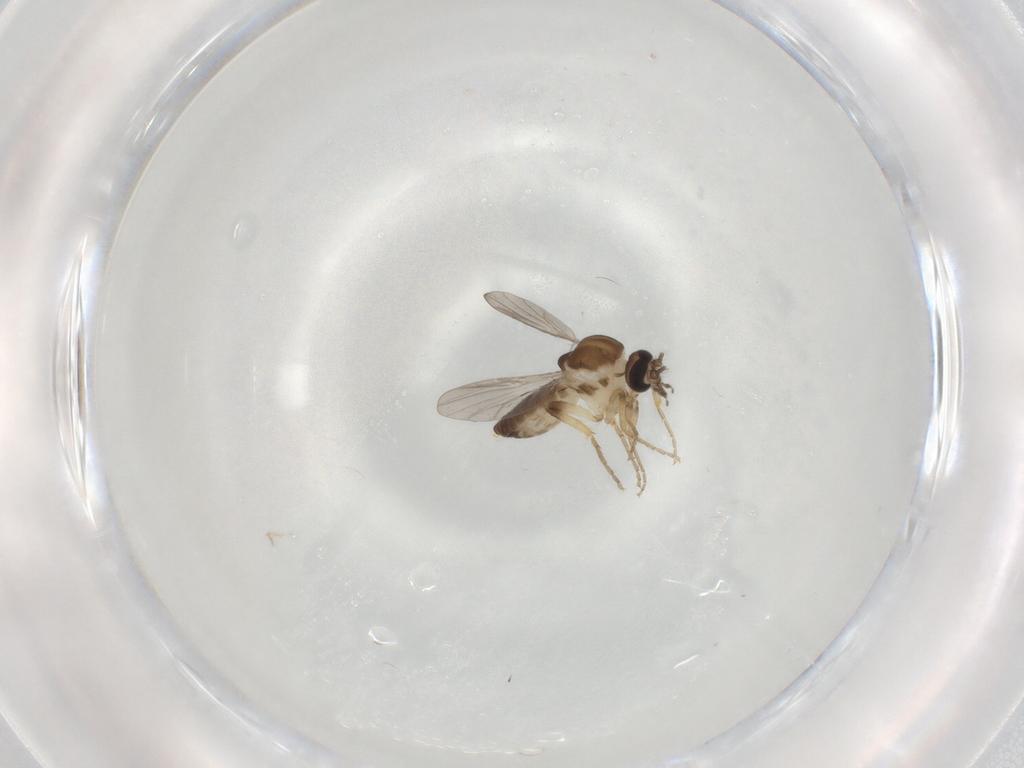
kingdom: Animalia
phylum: Arthropoda
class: Insecta
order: Diptera
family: Ceratopogonidae
